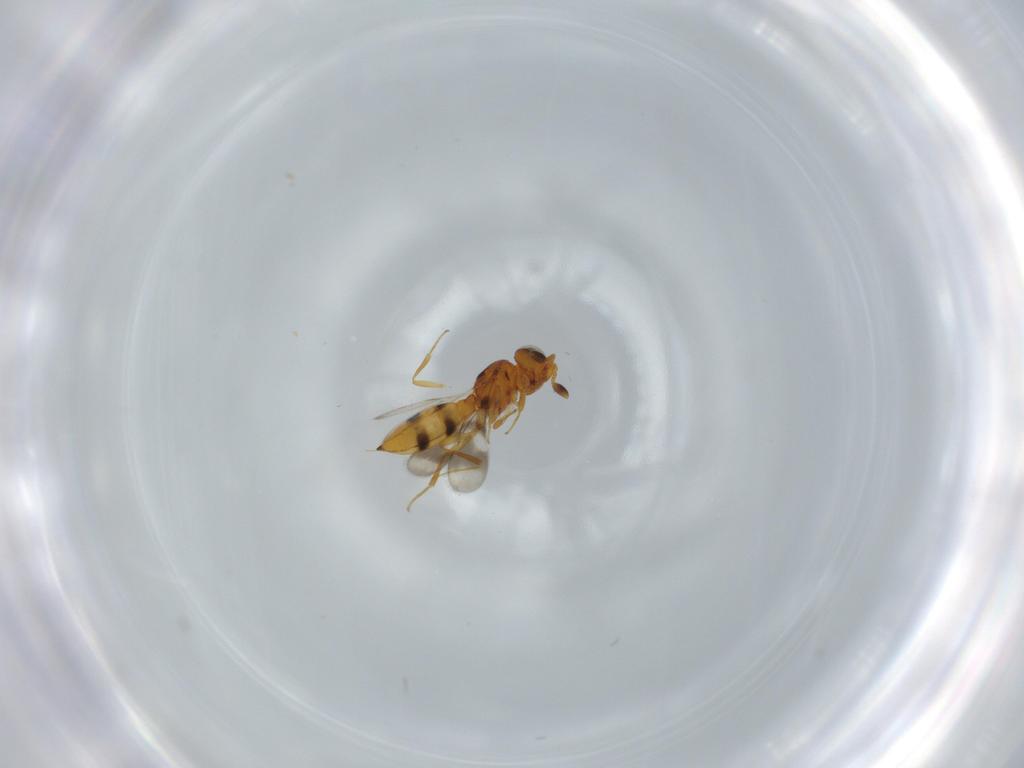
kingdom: Animalia
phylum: Arthropoda
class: Insecta
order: Hymenoptera
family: Scelionidae
